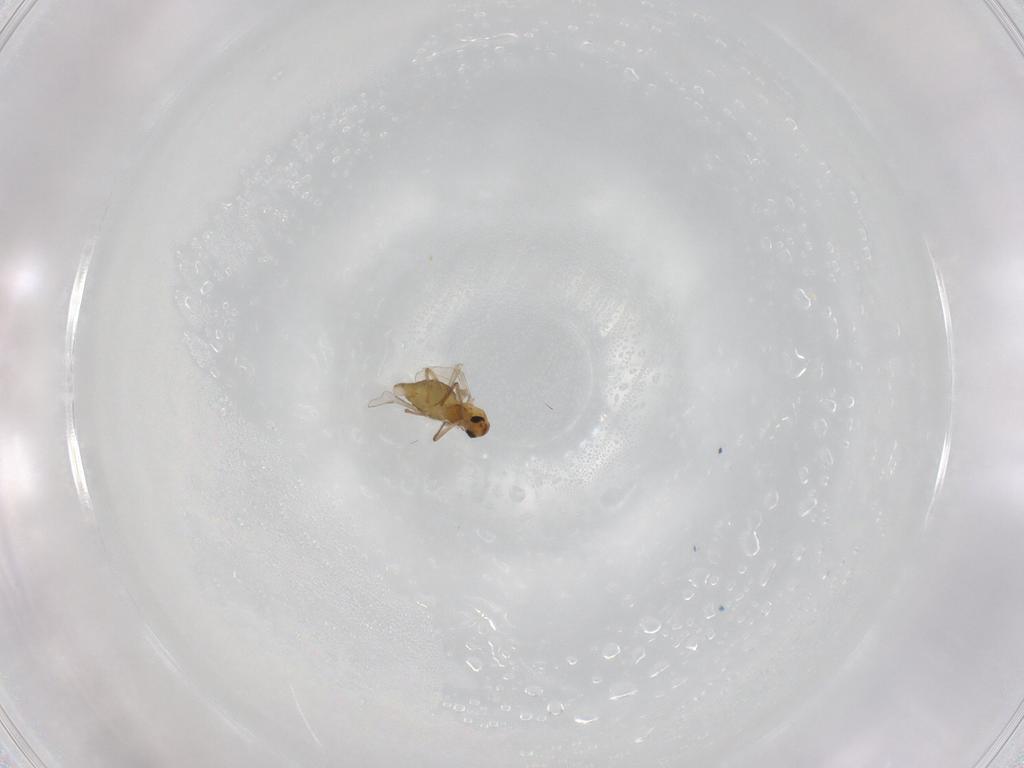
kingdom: Animalia
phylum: Arthropoda
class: Insecta
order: Diptera
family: Chironomidae
